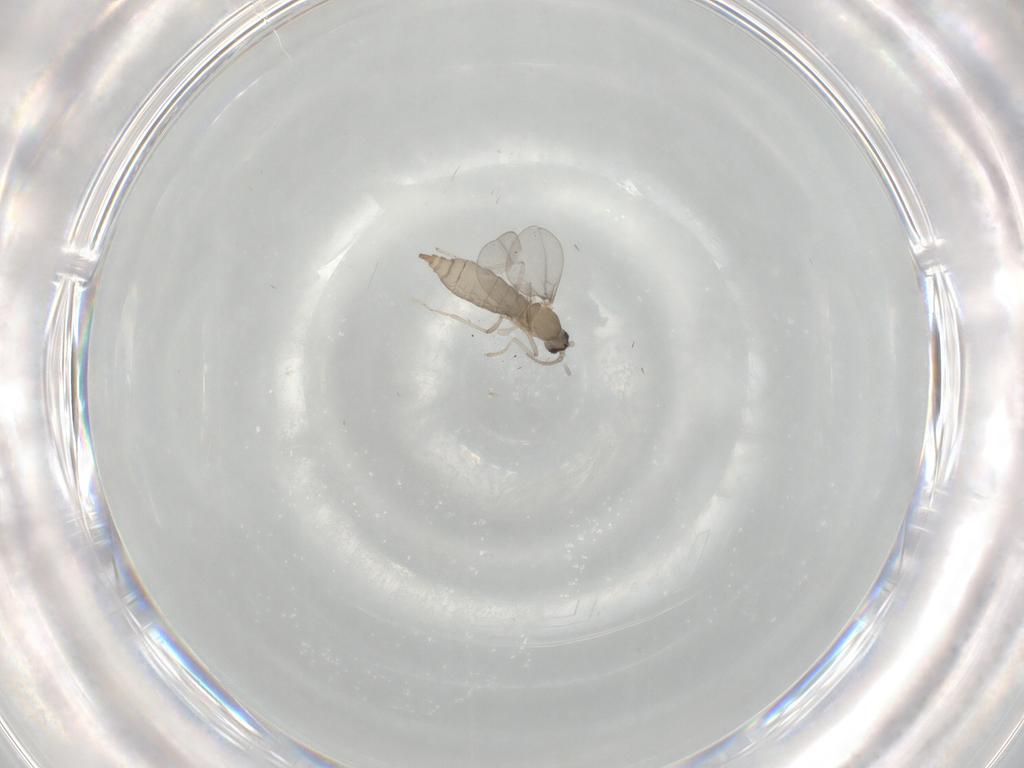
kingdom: Animalia
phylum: Arthropoda
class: Insecta
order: Diptera
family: Cecidomyiidae
